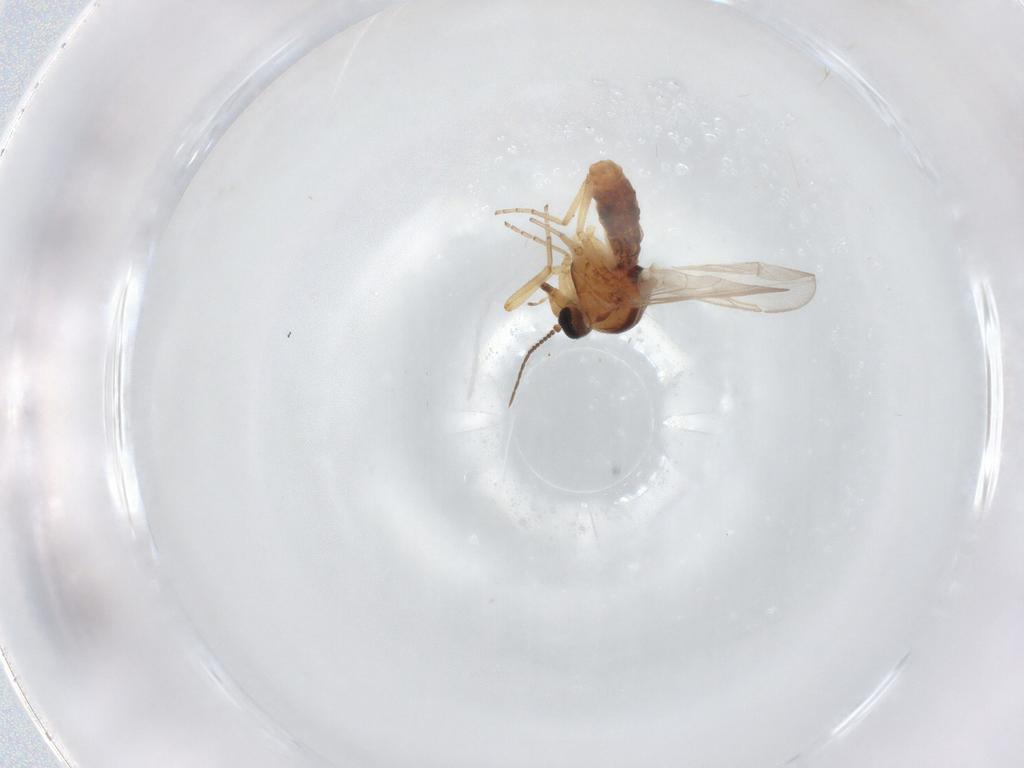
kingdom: Animalia
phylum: Arthropoda
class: Insecta
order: Diptera
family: Ceratopogonidae
